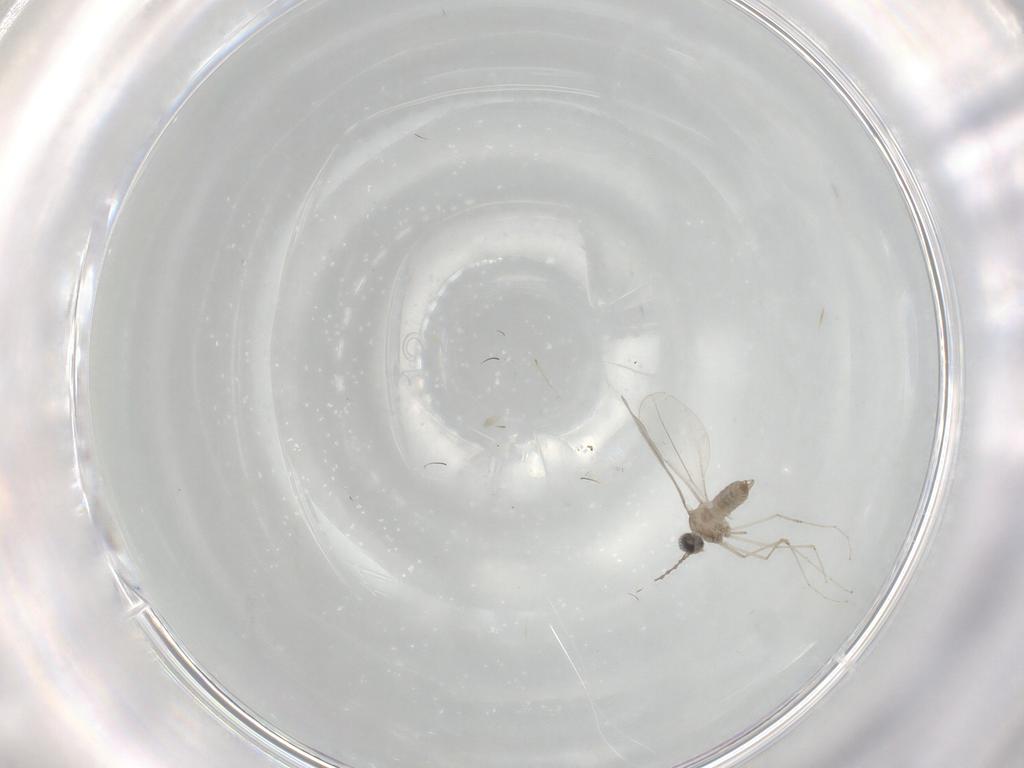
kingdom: Animalia
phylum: Arthropoda
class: Insecta
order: Diptera
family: Cecidomyiidae
